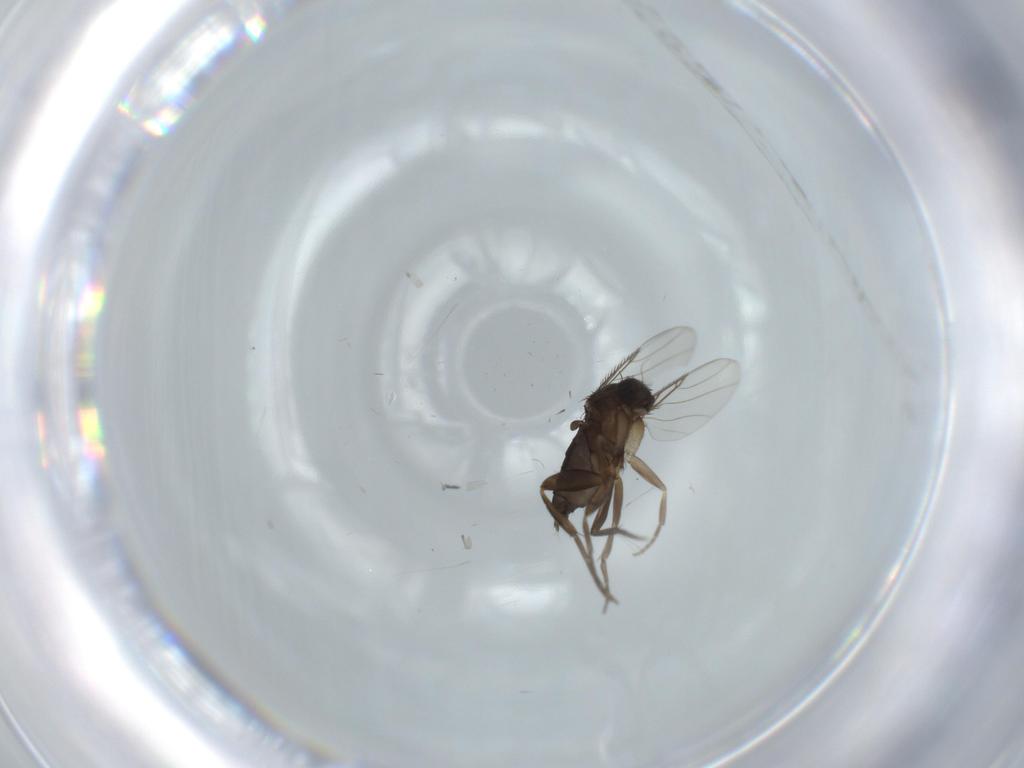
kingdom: Animalia
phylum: Arthropoda
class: Insecta
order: Diptera
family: Phoridae
